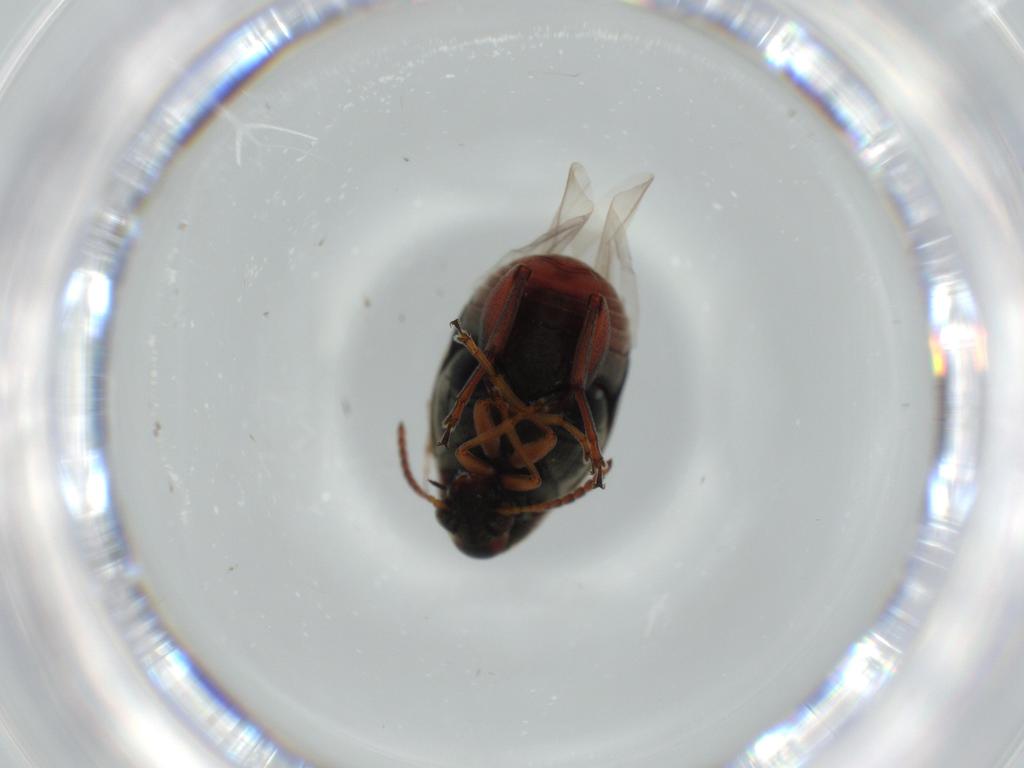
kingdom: Animalia
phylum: Arthropoda
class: Insecta
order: Coleoptera
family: Chrysomelidae
